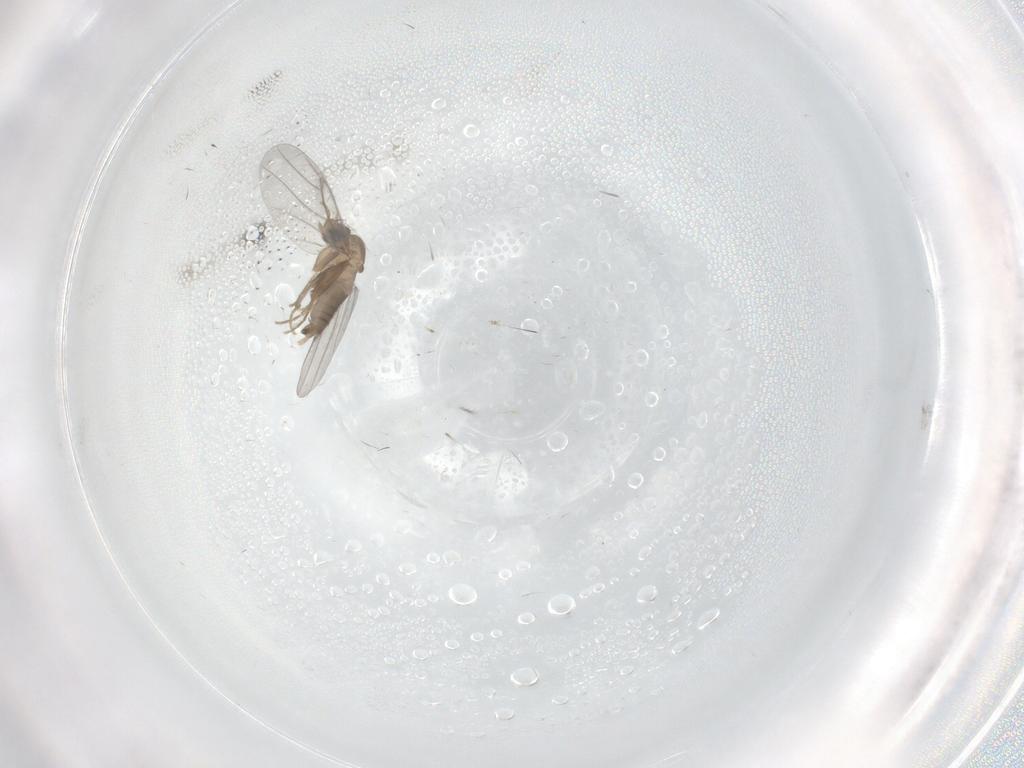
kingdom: Animalia
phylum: Arthropoda
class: Insecta
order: Diptera
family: Ceratopogonidae
